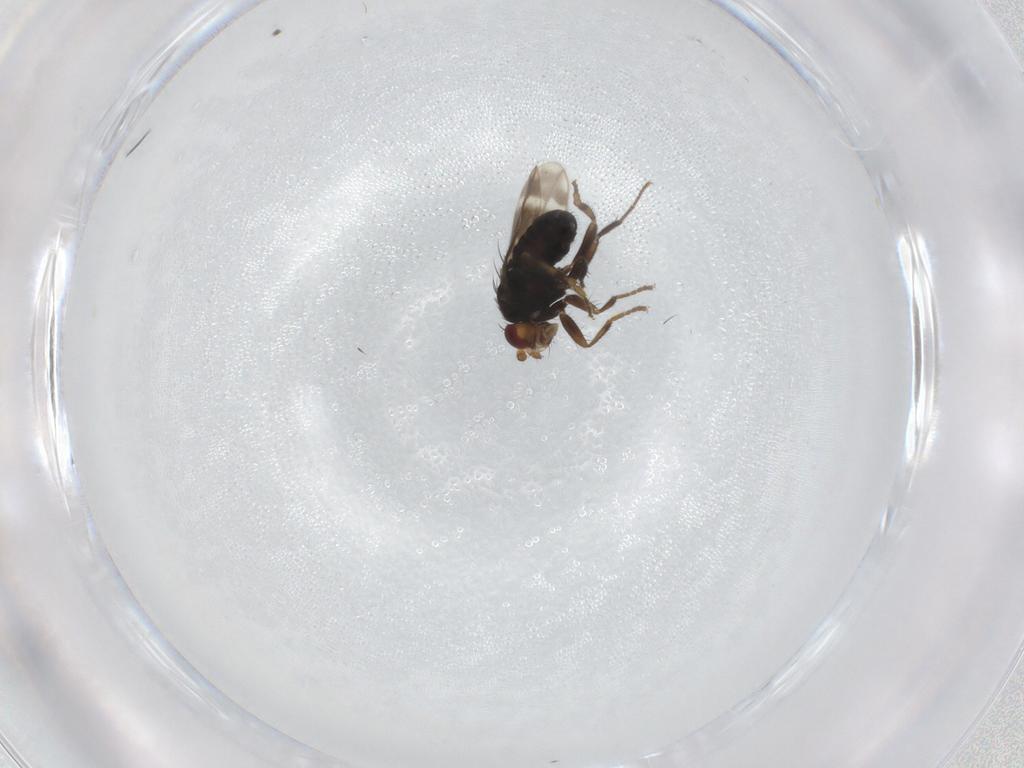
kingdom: Animalia
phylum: Arthropoda
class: Insecta
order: Diptera
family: Sphaeroceridae
